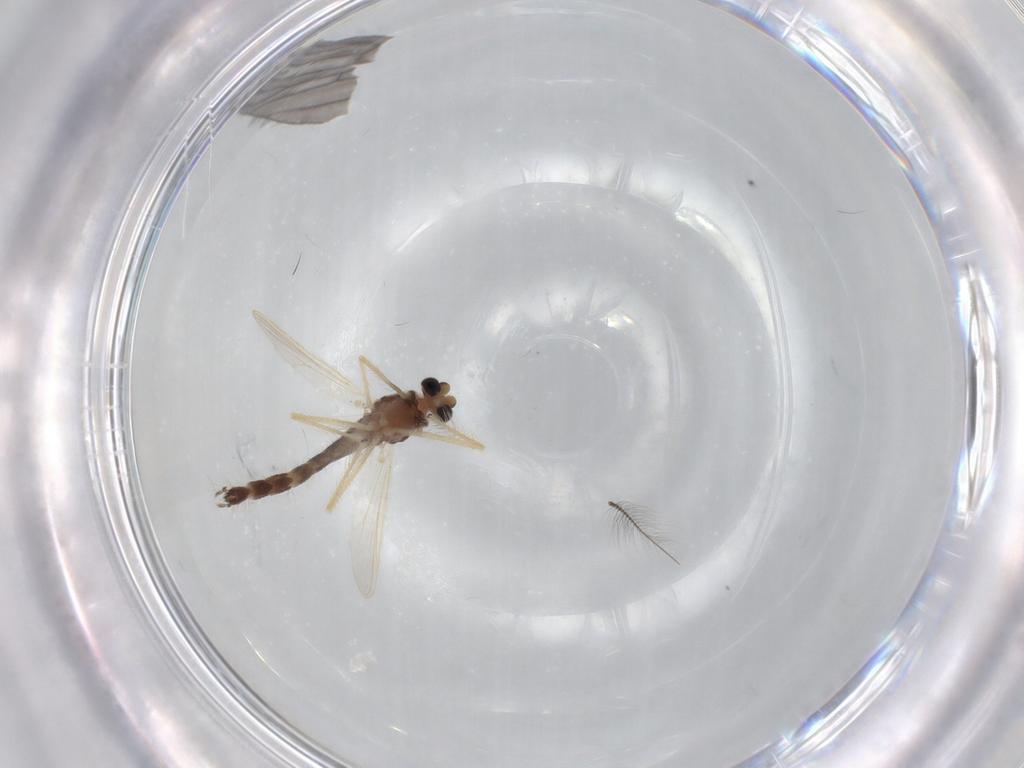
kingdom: Animalia
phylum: Arthropoda
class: Insecta
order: Diptera
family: Chironomidae
